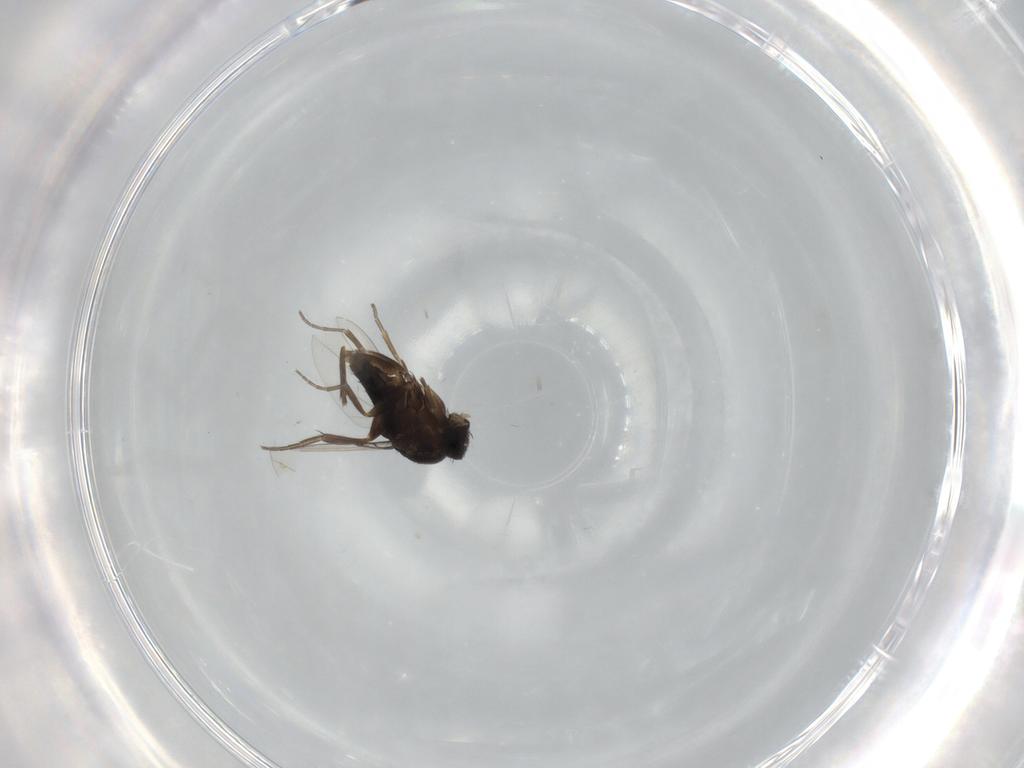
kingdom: Animalia
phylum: Arthropoda
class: Insecta
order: Diptera
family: Phoridae
